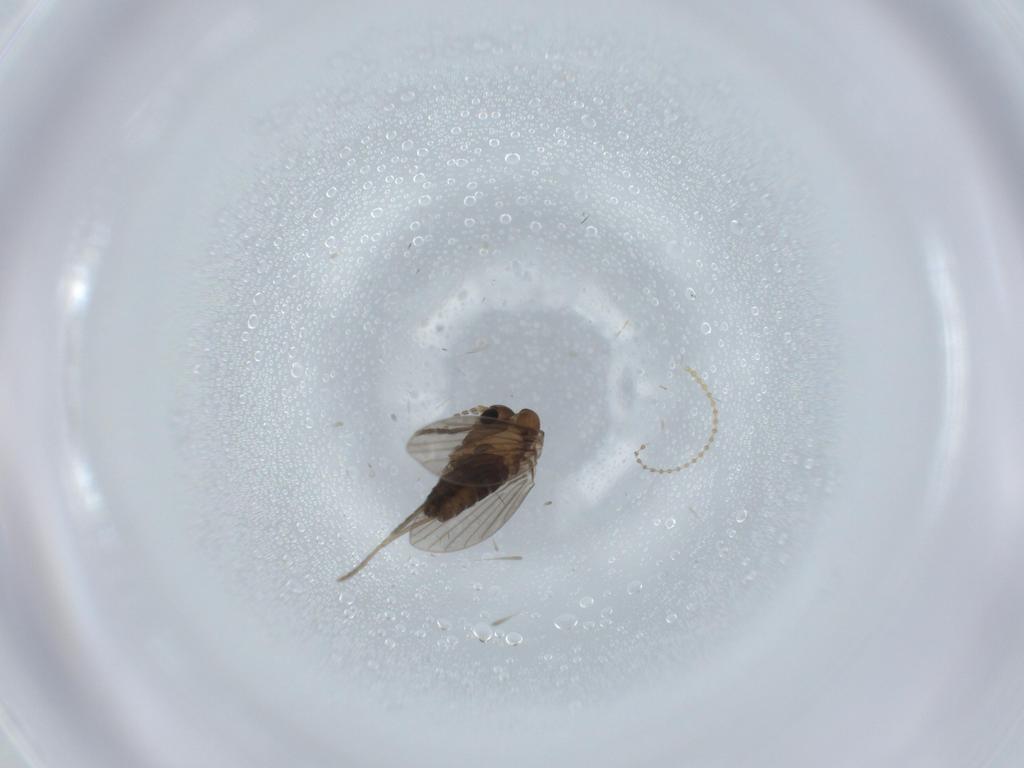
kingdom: Animalia
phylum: Arthropoda
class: Insecta
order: Diptera
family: Psychodidae
